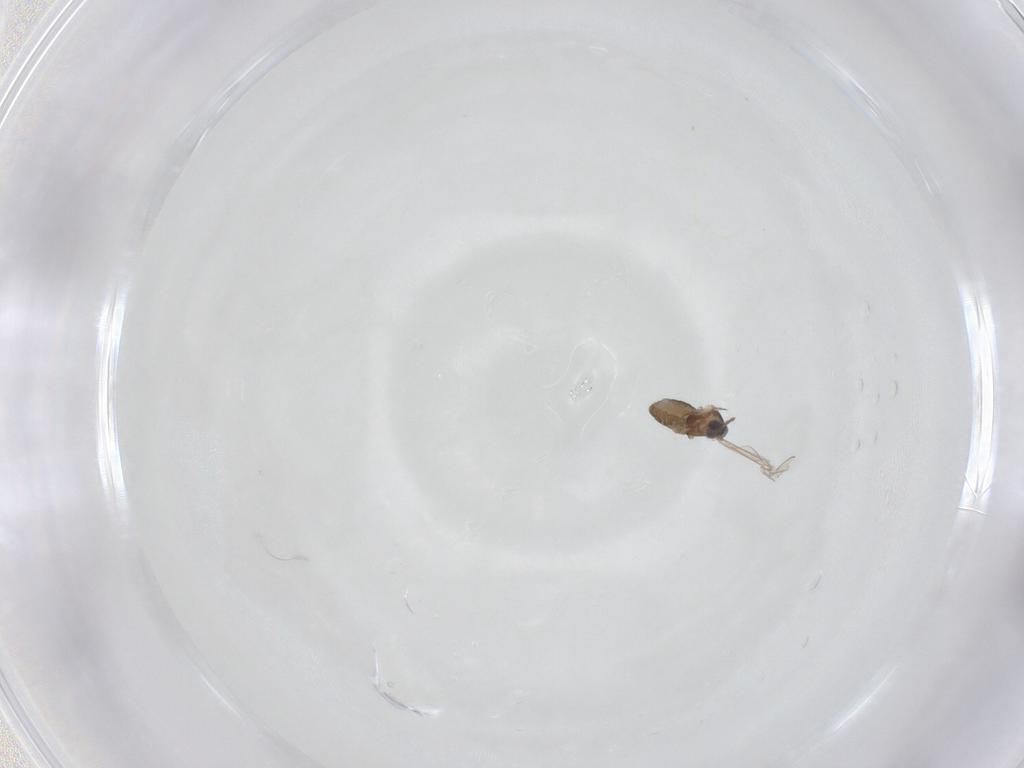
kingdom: Animalia
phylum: Arthropoda
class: Insecta
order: Diptera
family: Cecidomyiidae
